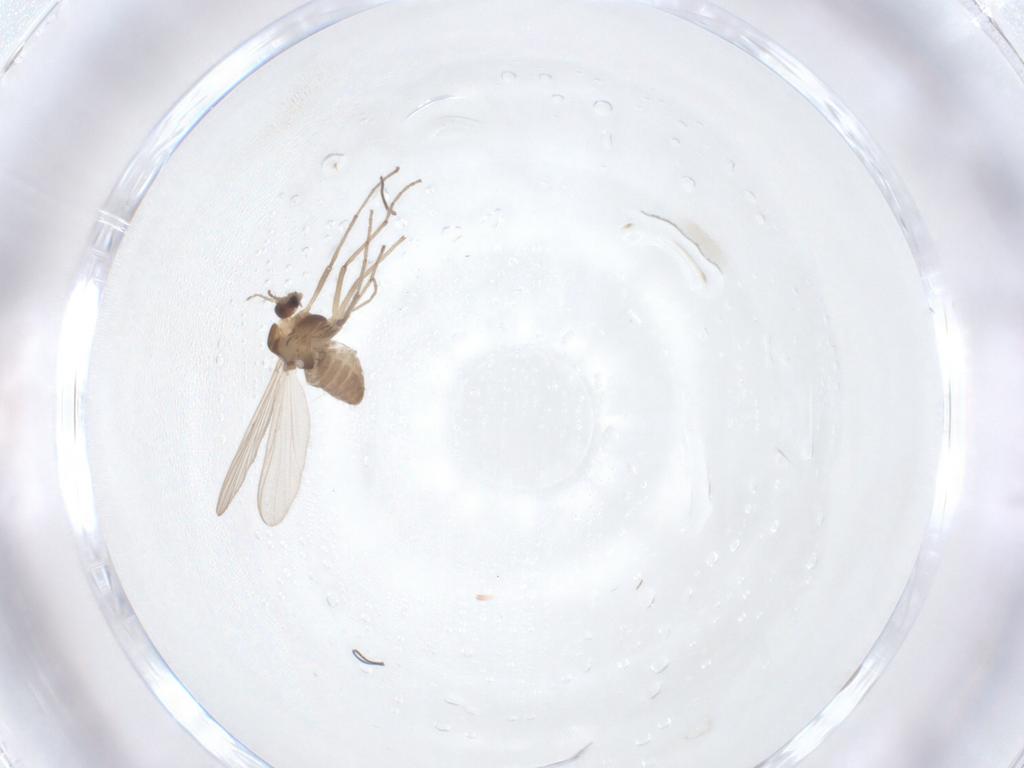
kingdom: Animalia
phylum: Arthropoda
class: Insecta
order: Diptera
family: Chironomidae
